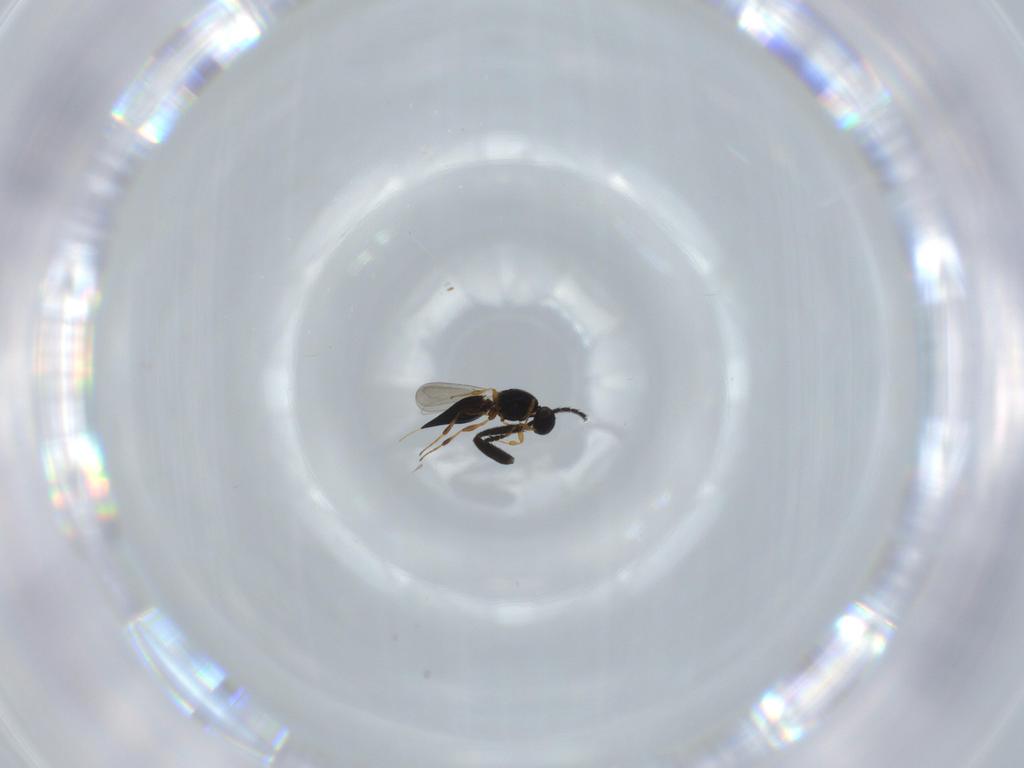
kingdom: Animalia
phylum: Arthropoda
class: Insecta
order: Hymenoptera
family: Platygastridae
